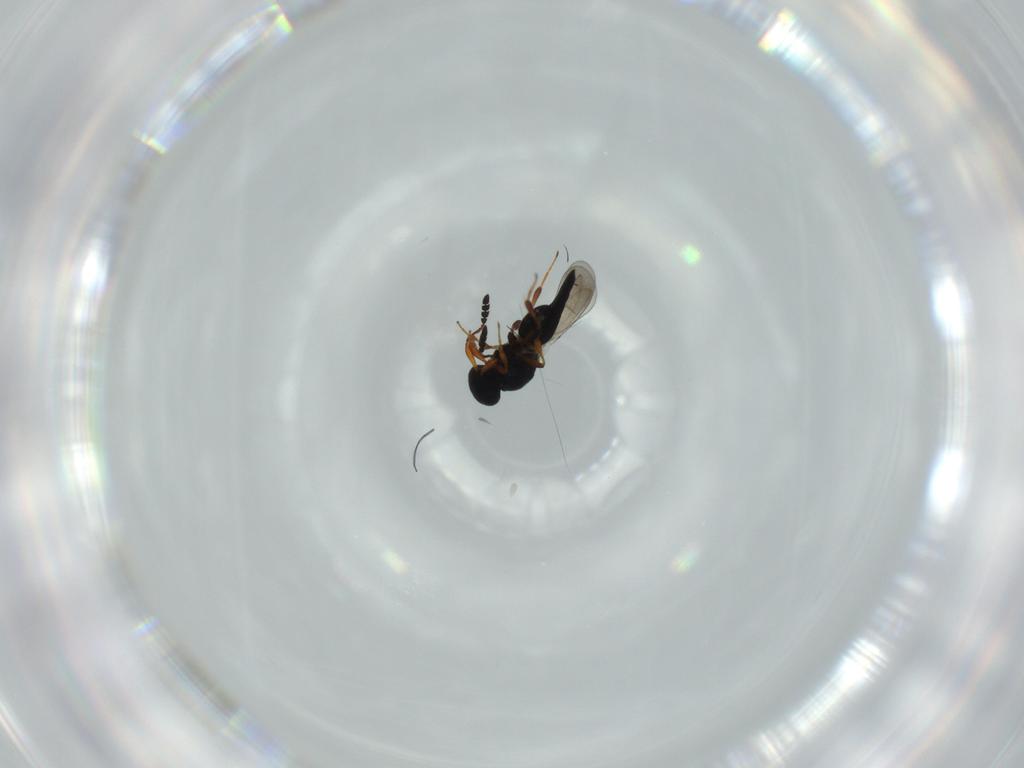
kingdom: Animalia
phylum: Arthropoda
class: Insecta
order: Hymenoptera
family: Platygastridae
